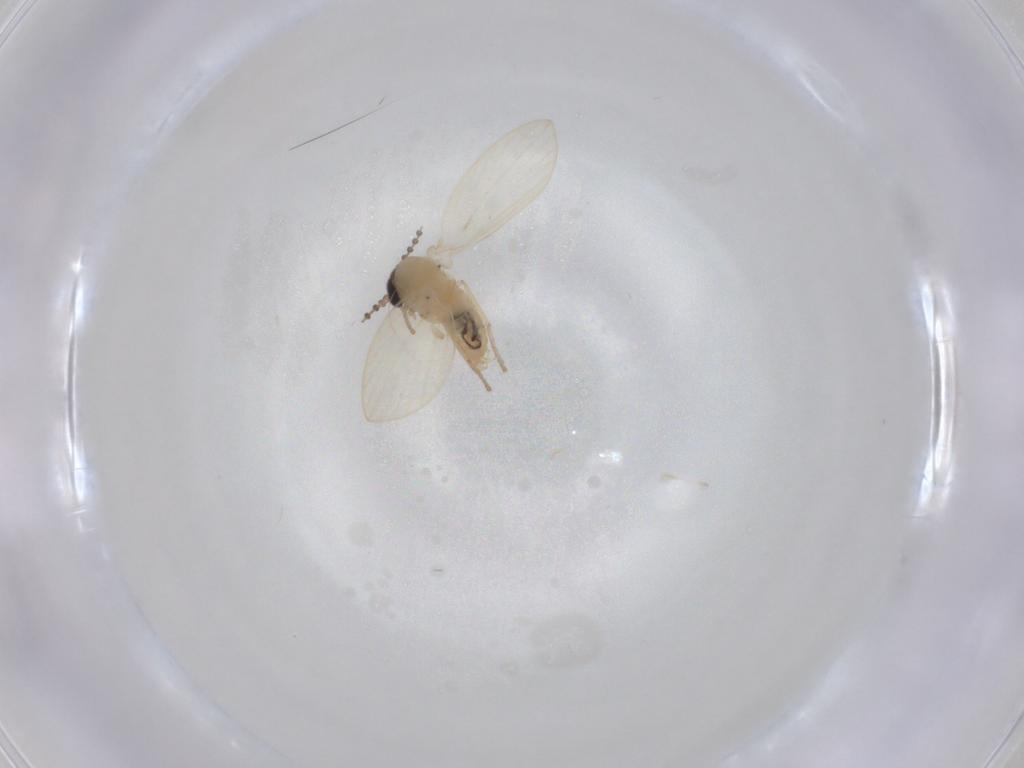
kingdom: Animalia
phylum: Arthropoda
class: Insecta
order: Diptera
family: Psychodidae
